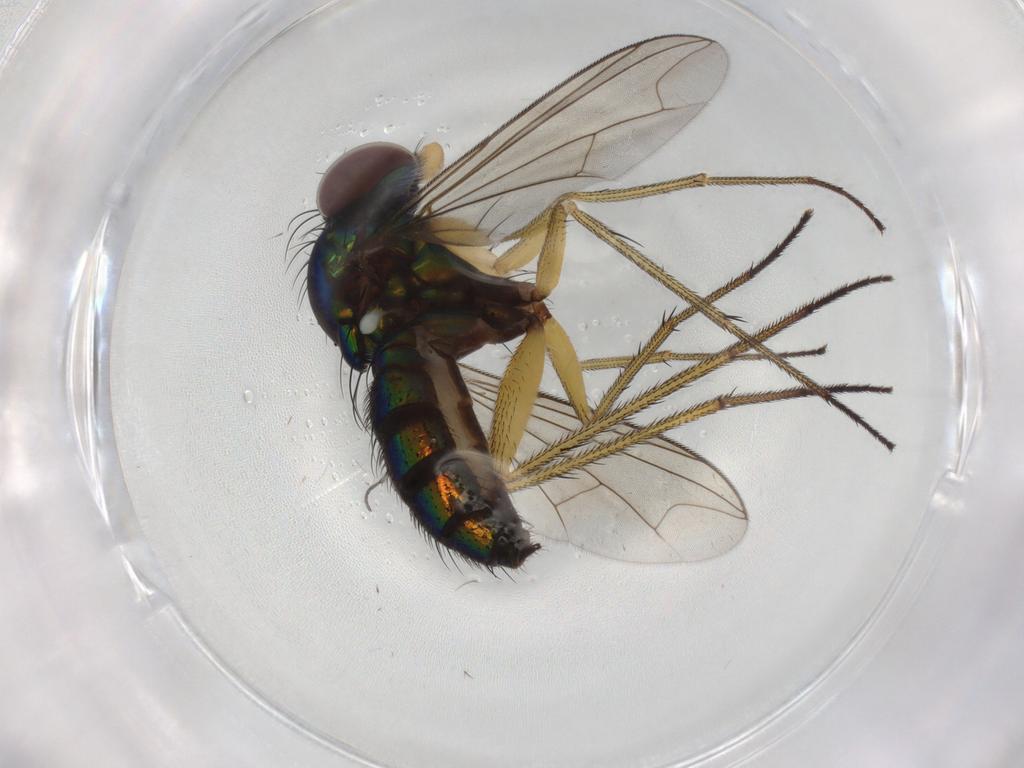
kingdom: Animalia
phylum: Arthropoda
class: Insecta
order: Diptera
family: Dolichopodidae
